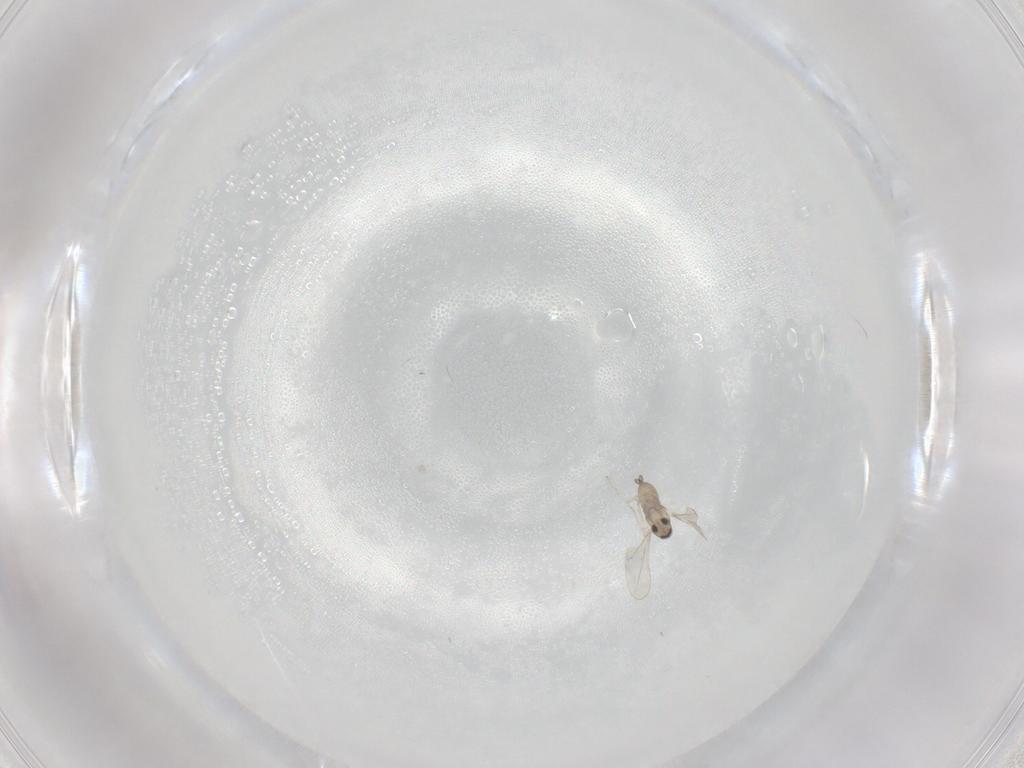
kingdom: Animalia
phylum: Arthropoda
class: Insecta
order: Diptera
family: Cecidomyiidae
